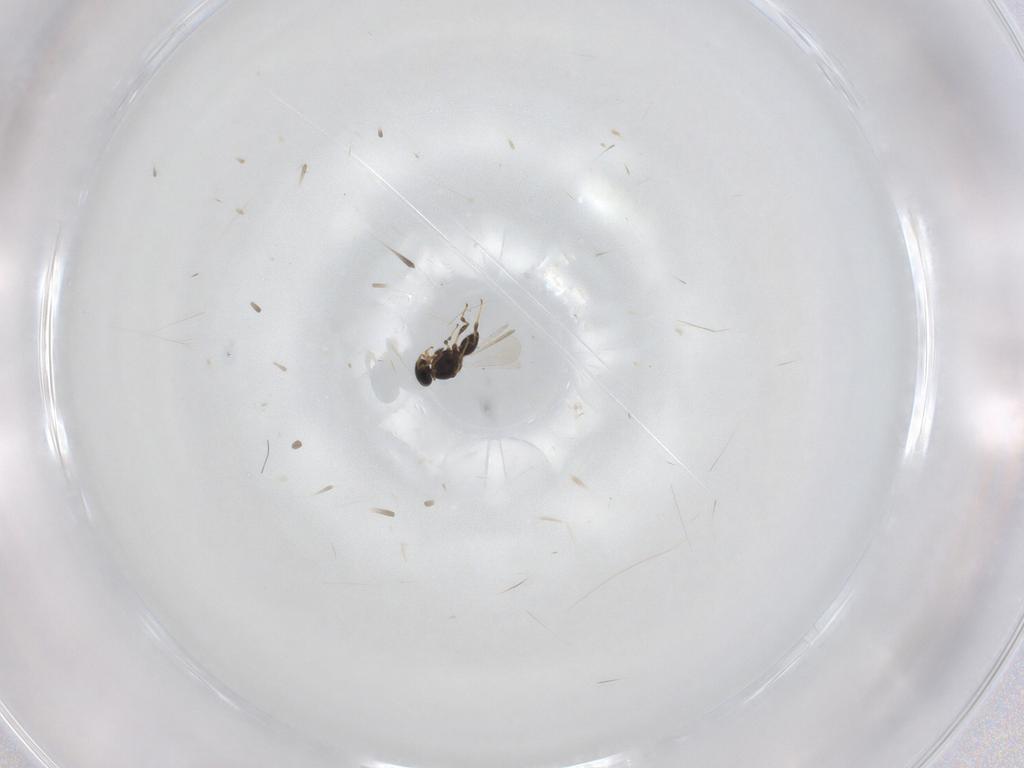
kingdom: Animalia
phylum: Arthropoda
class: Insecta
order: Hymenoptera
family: Platygastridae
